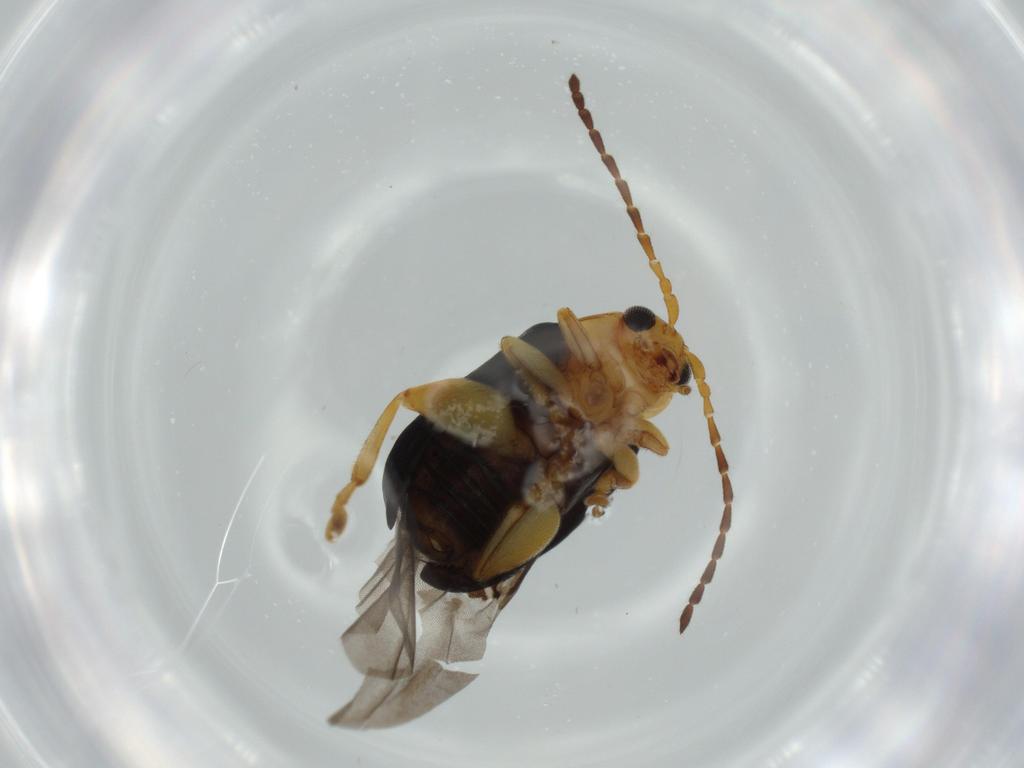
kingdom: Animalia
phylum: Arthropoda
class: Insecta
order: Coleoptera
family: Chrysomelidae
